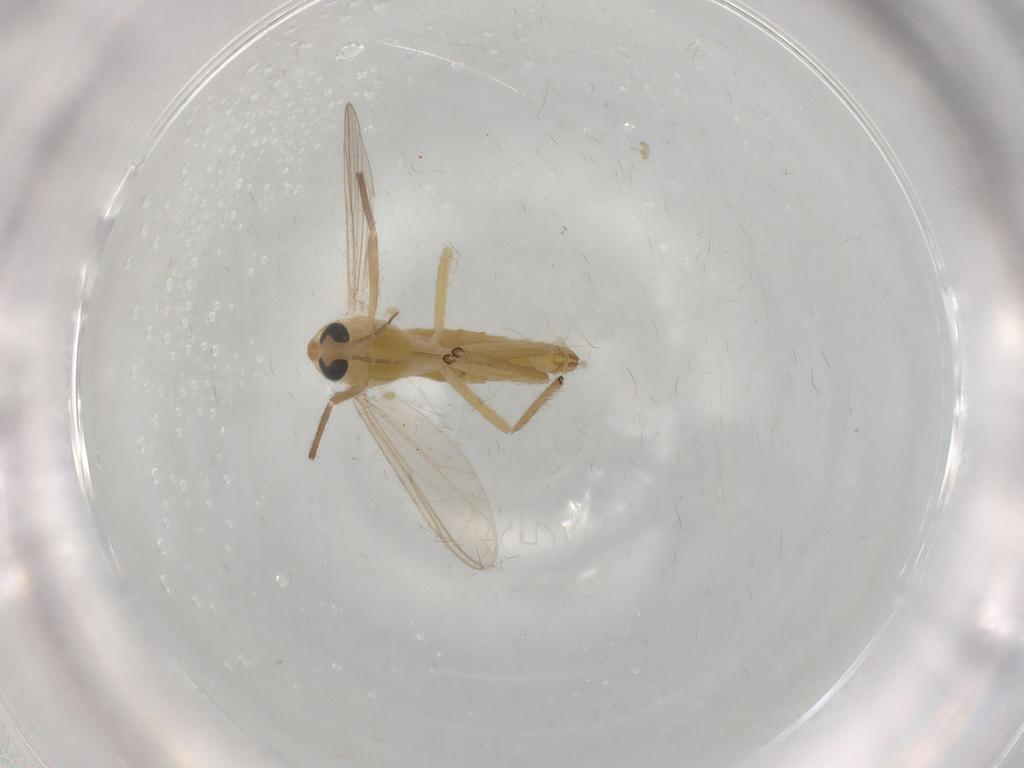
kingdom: Animalia
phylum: Arthropoda
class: Insecta
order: Diptera
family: Chironomidae
